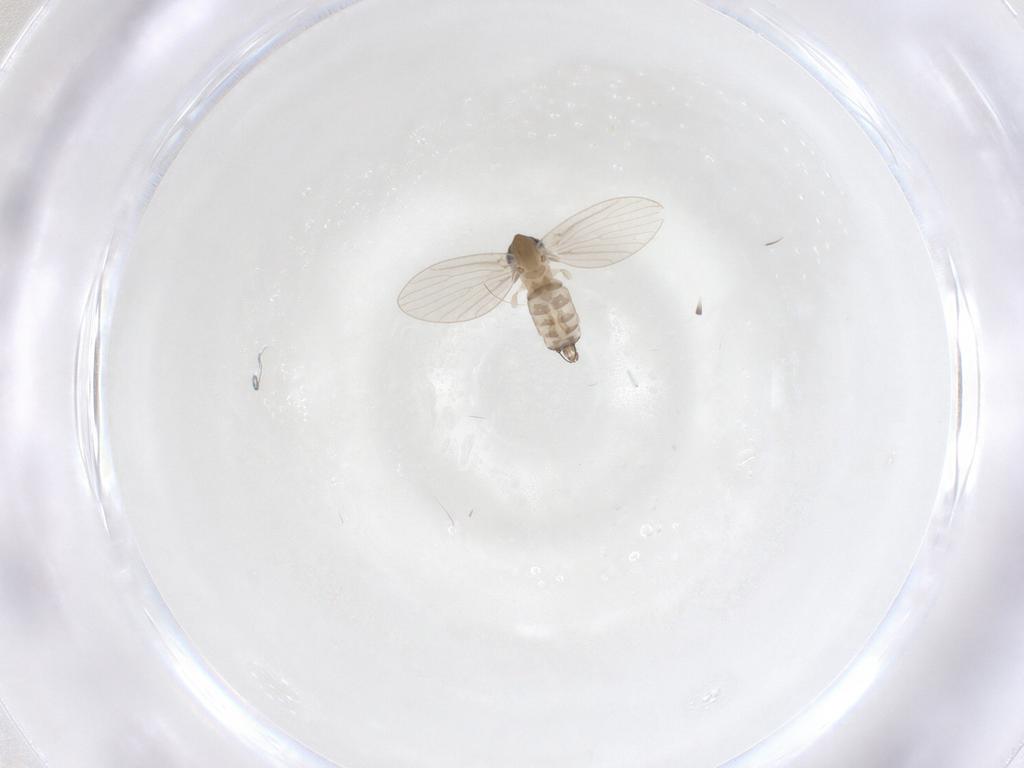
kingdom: Animalia
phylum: Arthropoda
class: Insecta
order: Diptera
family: Cecidomyiidae
